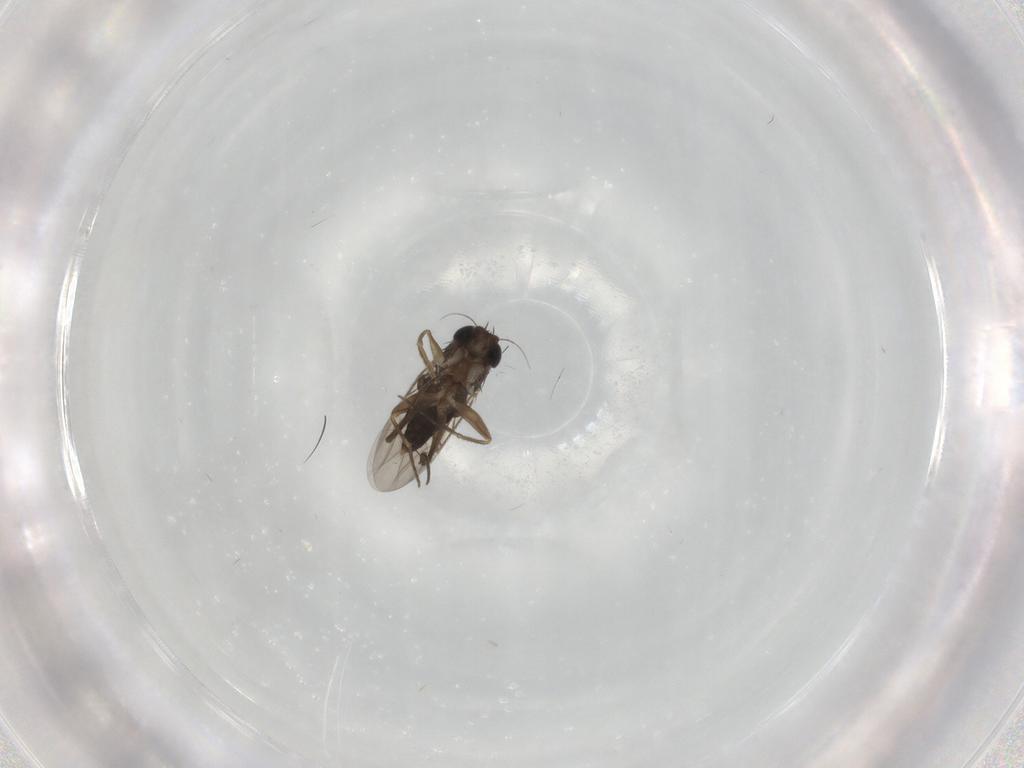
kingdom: Animalia
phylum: Arthropoda
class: Insecta
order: Diptera
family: Phoridae
